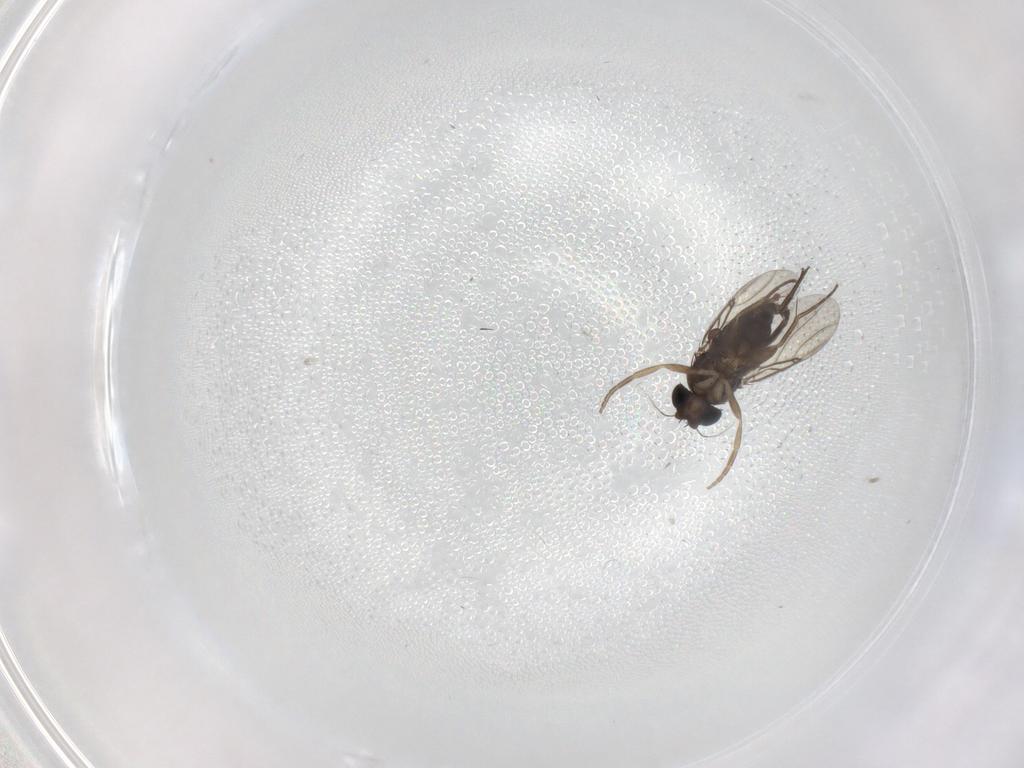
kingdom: Animalia
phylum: Arthropoda
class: Insecta
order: Diptera
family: Phoridae
